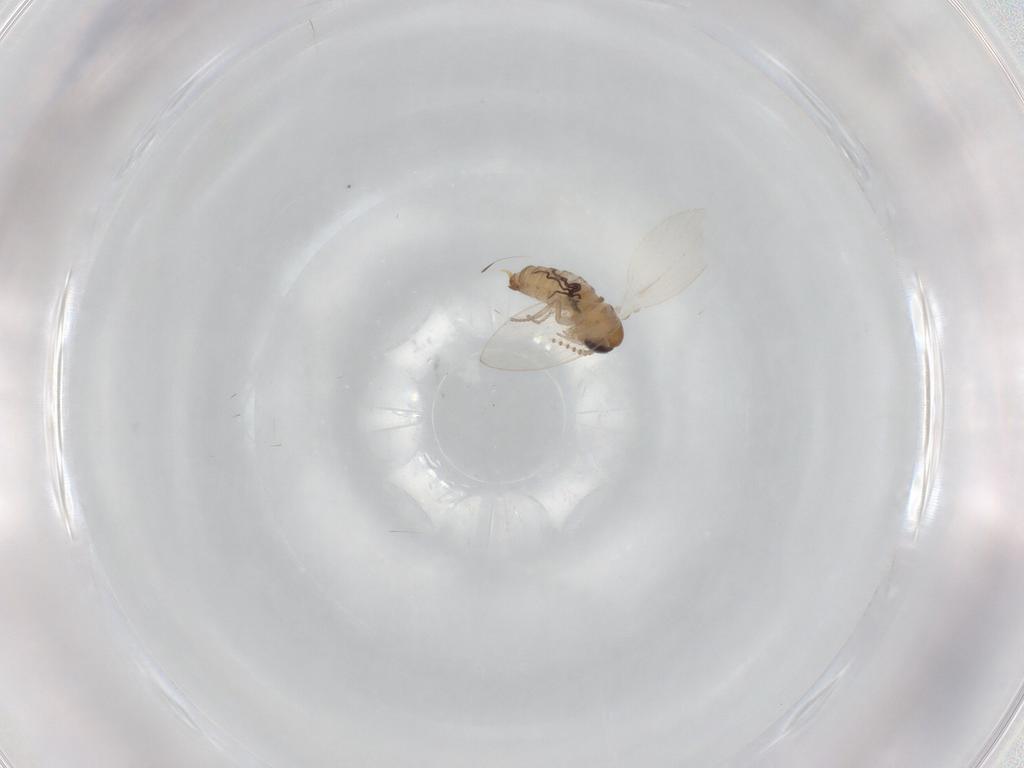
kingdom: Animalia
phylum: Arthropoda
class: Insecta
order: Diptera
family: Psychodidae
